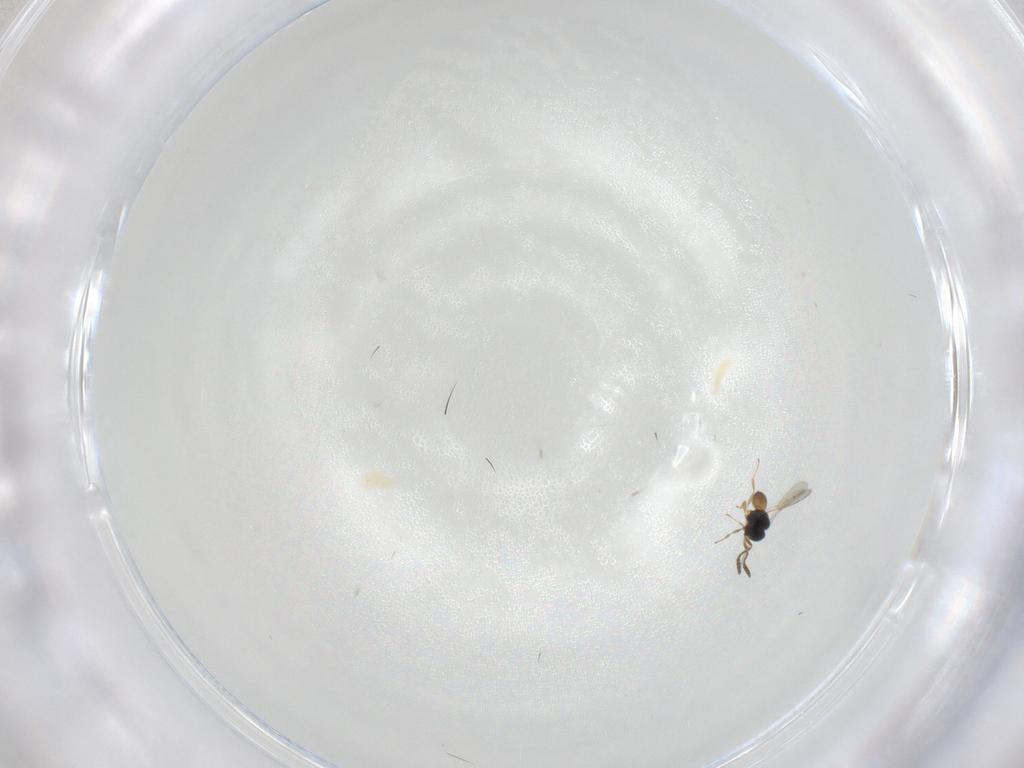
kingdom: Animalia
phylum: Arthropoda
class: Insecta
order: Hymenoptera
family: Scelionidae
